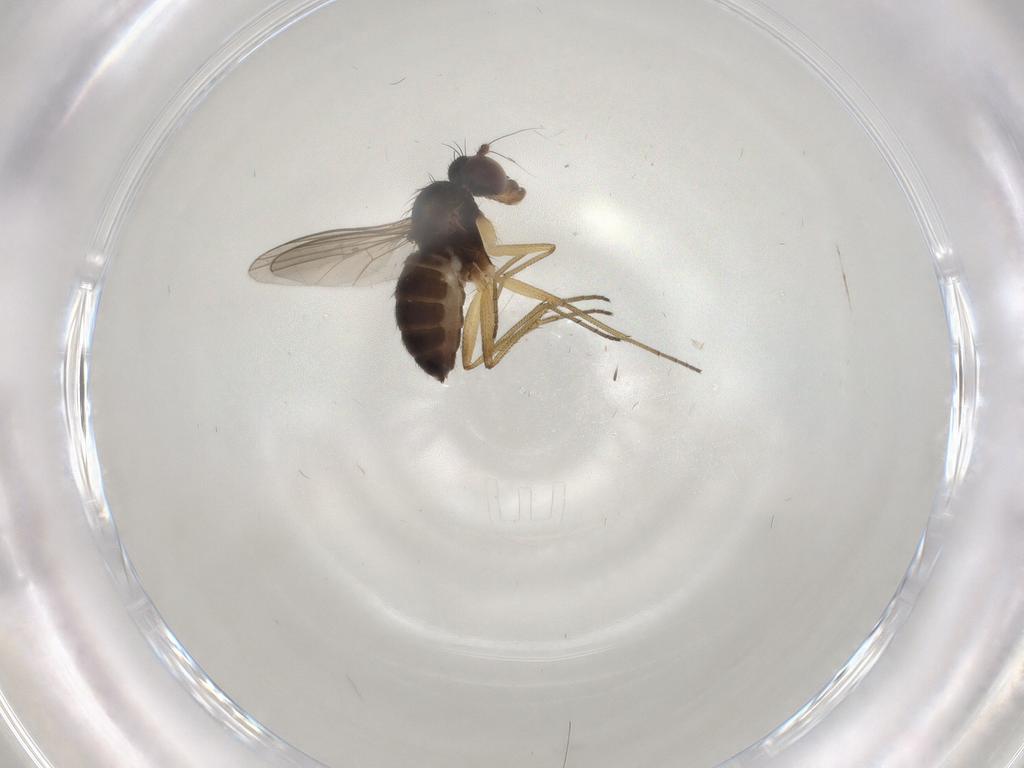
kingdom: Animalia
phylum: Arthropoda
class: Insecta
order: Diptera
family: Dolichopodidae
